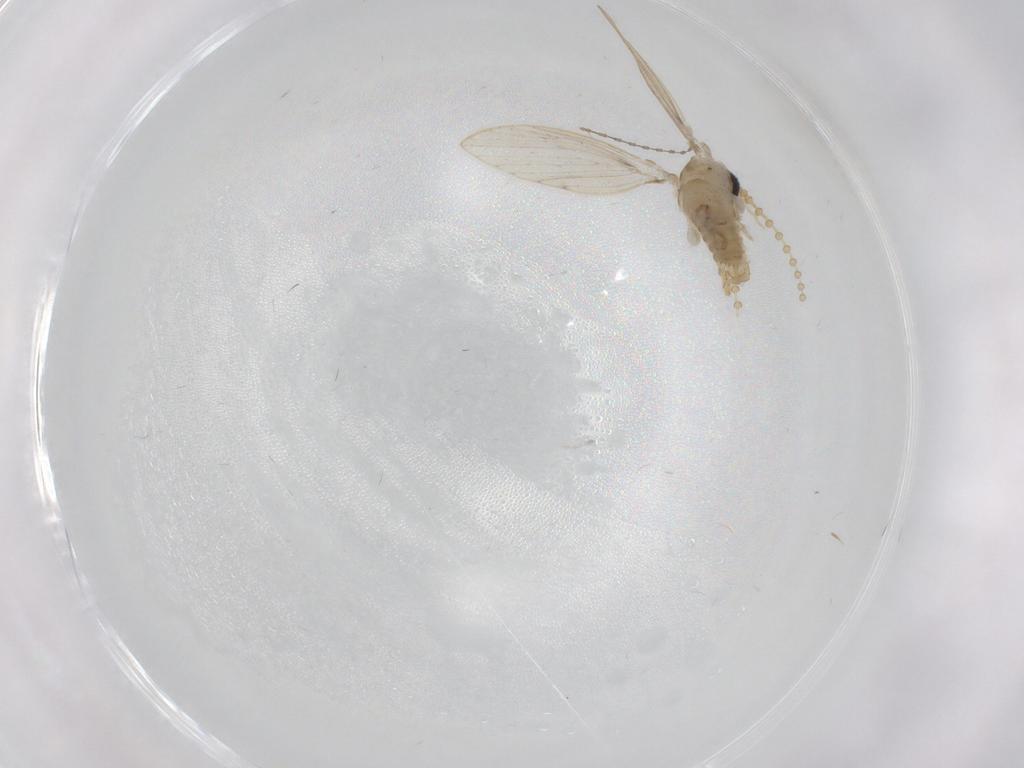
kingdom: Animalia
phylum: Arthropoda
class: Insecta
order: Diptera
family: Psychodidae
